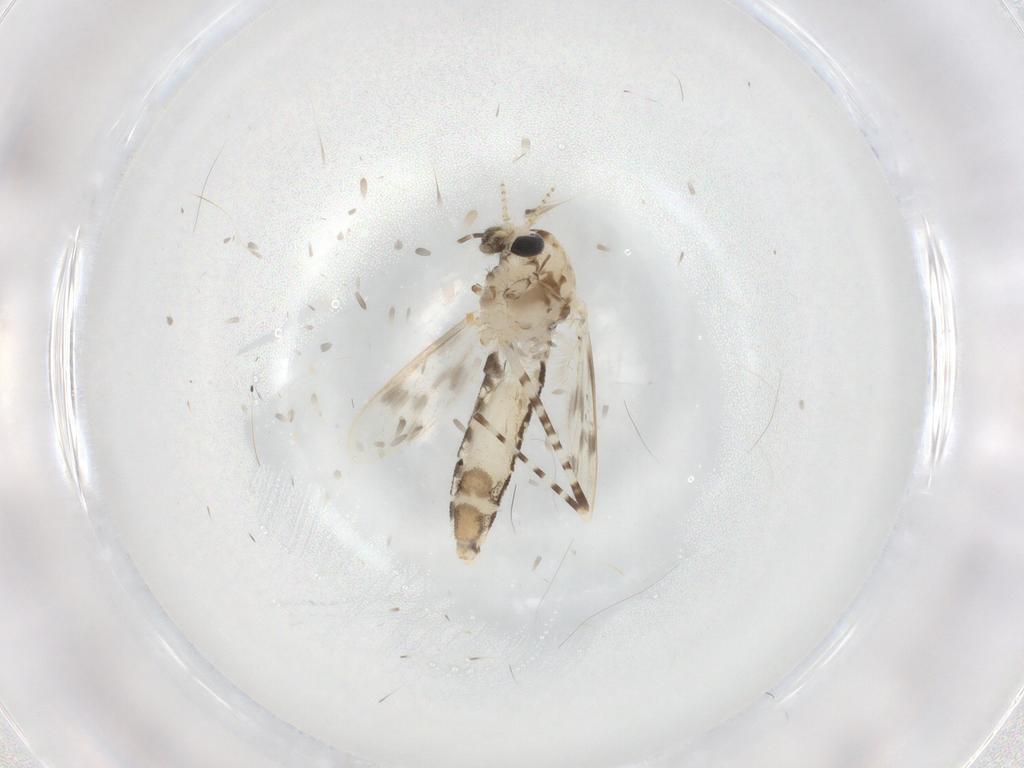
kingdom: Animalia
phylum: Arthropoda
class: Insecta
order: Diptera
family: Corethrellidae
